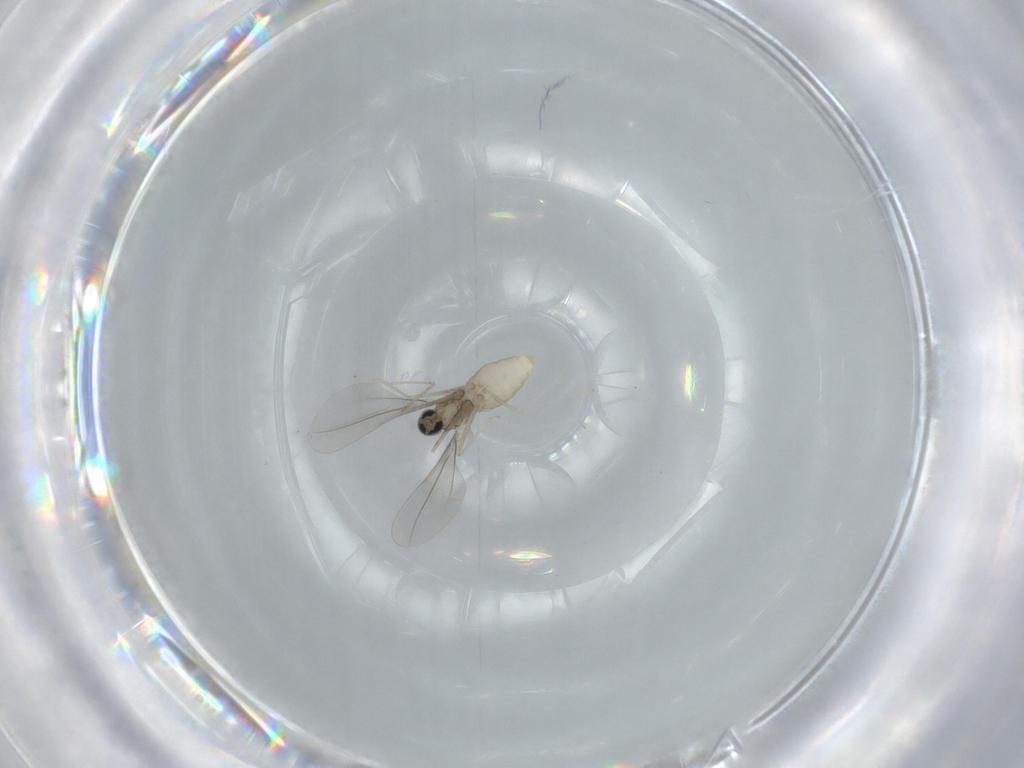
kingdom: Animalia
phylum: Arthropoda
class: Insecta
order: Diptera
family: Cecidomyiidae
